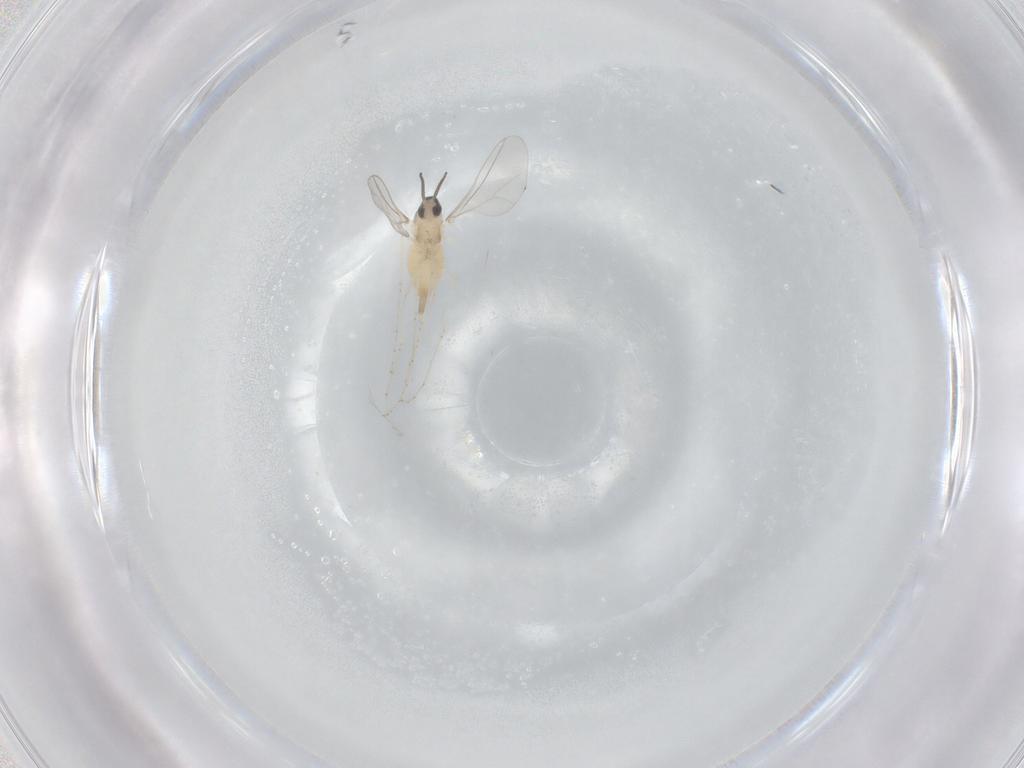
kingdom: Animalia
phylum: Arthropoda
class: Insecta
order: Diptera
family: Cecidomyiidae
